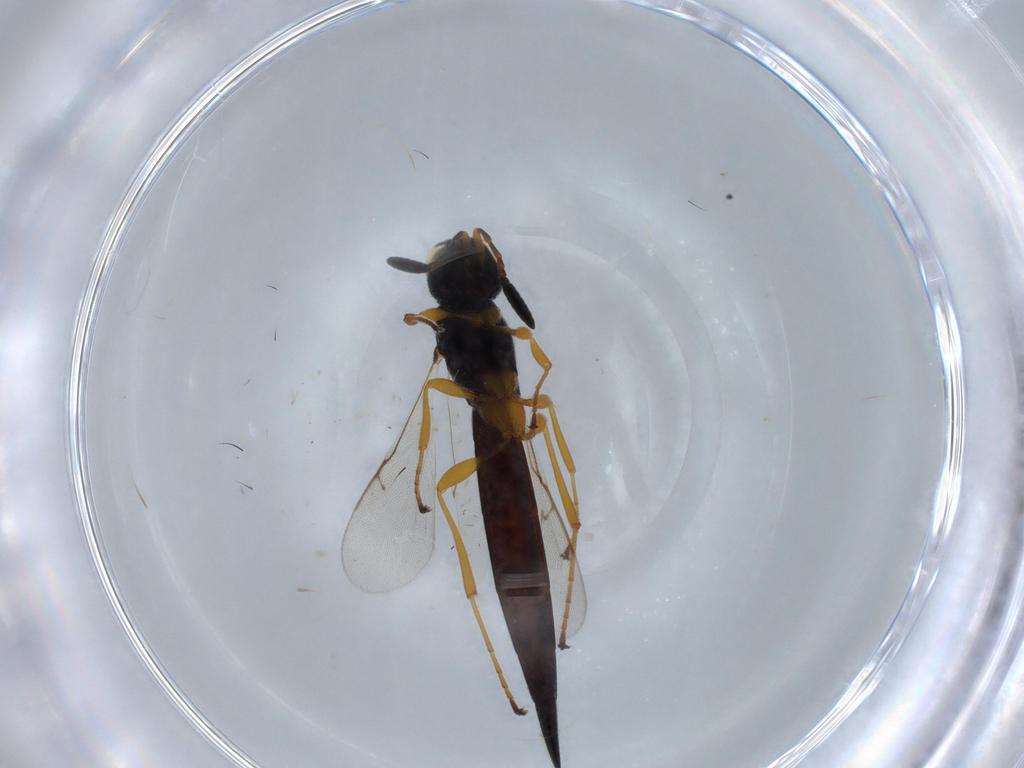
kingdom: Animalia
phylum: Arthropoda
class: Insecta
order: Hymenoptera
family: Scelionidae
